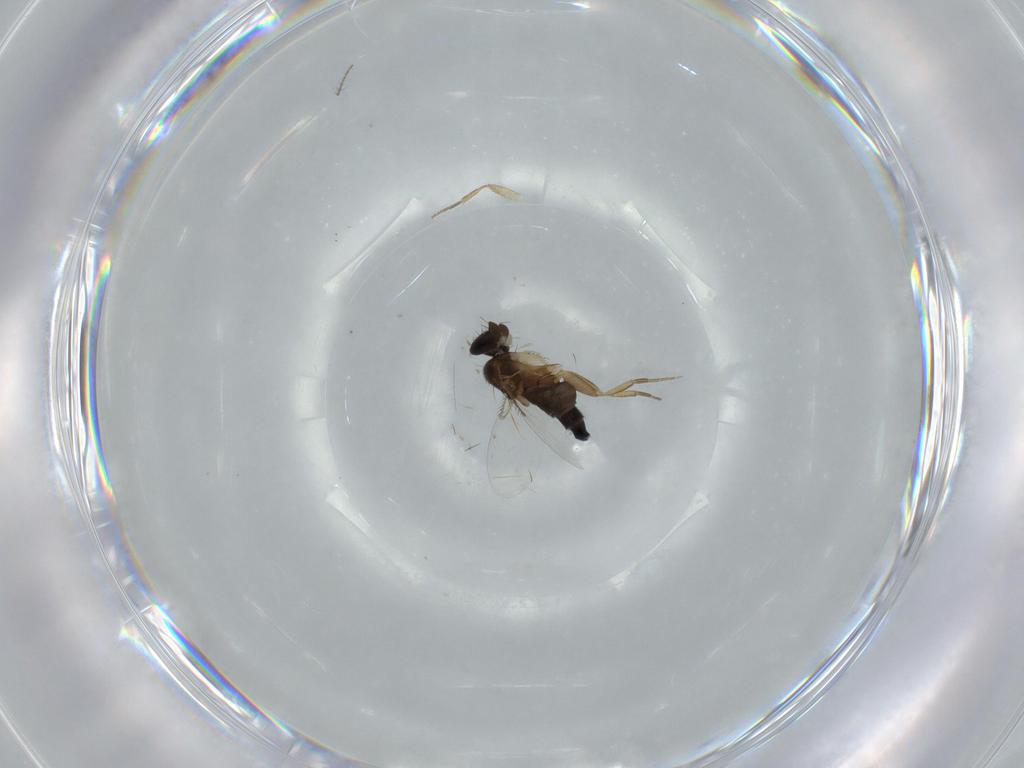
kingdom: Animalia
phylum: Arthropoda
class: Insecta
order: Diptera
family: Phoridae
